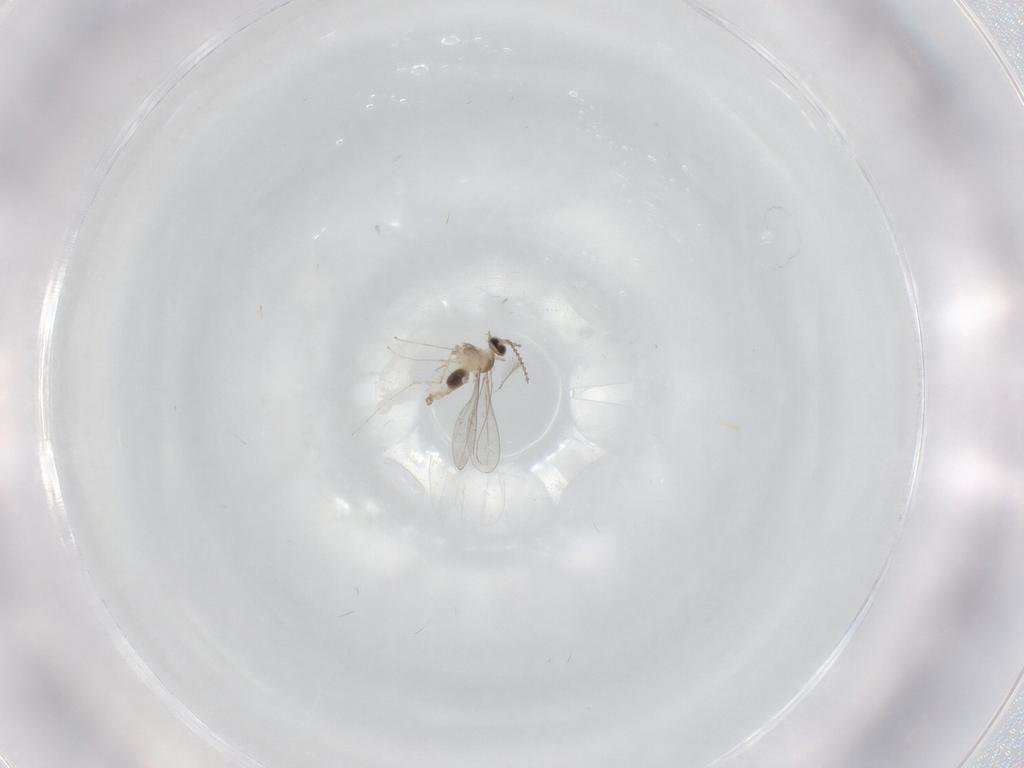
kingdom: Animalia
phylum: Arthropoda
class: Insecta
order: Diptera
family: Cecidomyiidae
